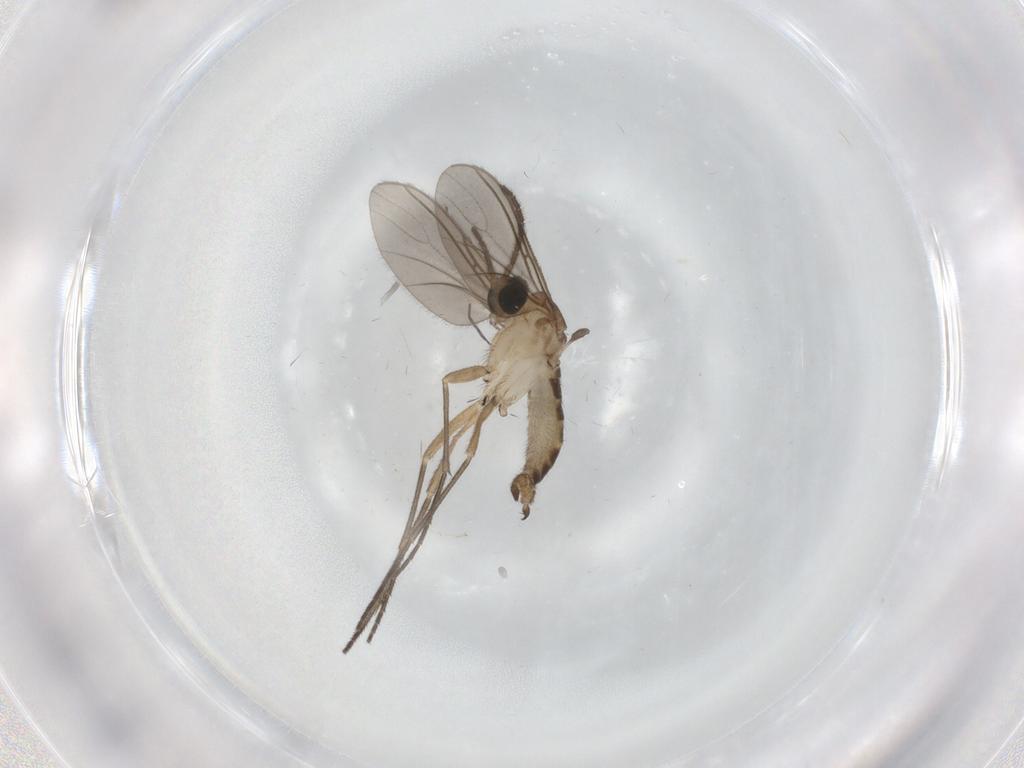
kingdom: Animalia
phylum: Arthropoda
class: Insecta
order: Diptera
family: Sciaridae
